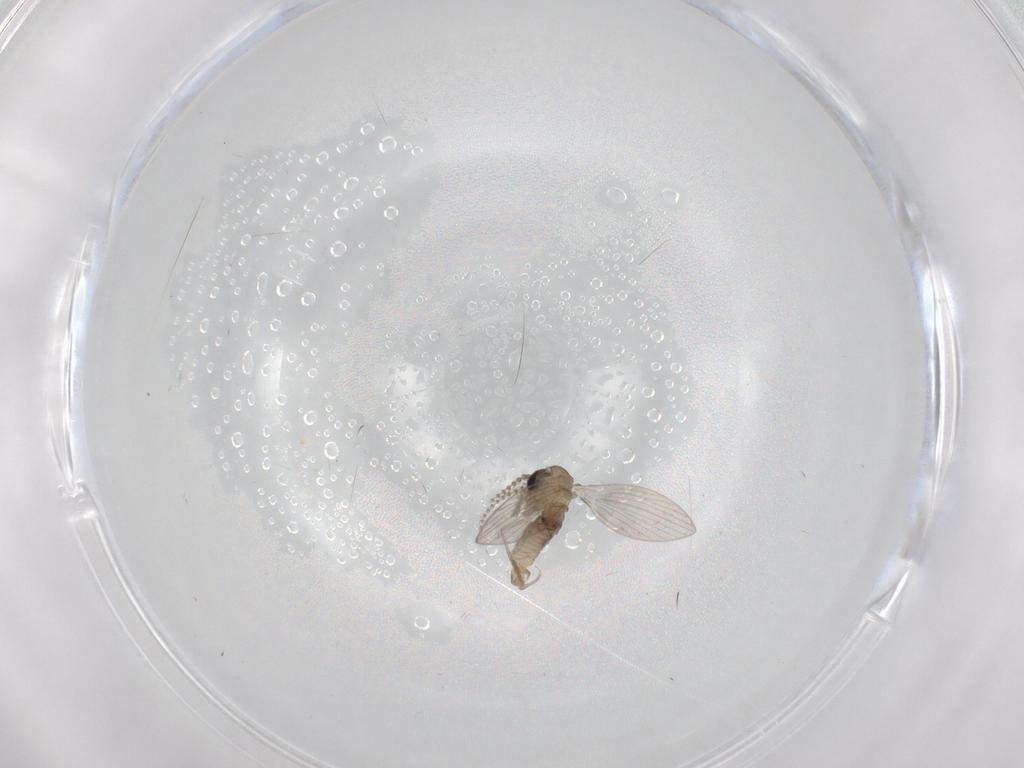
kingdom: Animalia
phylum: Arthropoda
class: Insecta
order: Diptera
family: Psychodidae
